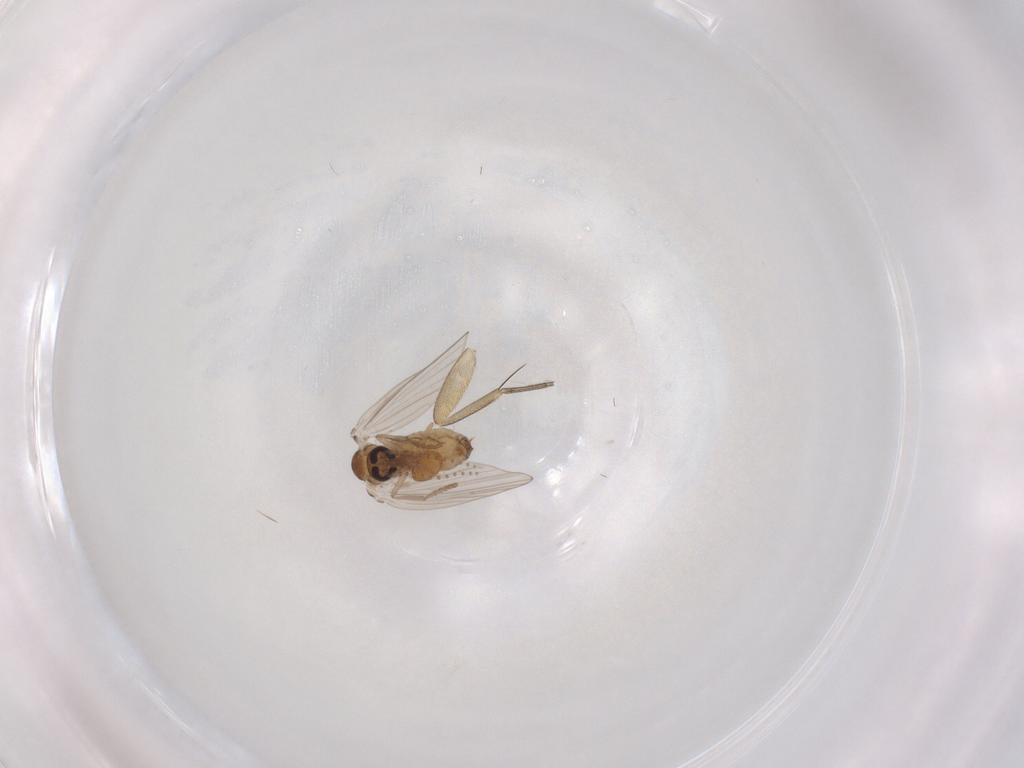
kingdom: Animalia
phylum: Arthropoda
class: Insecta
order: Diptera
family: Psychodidae
